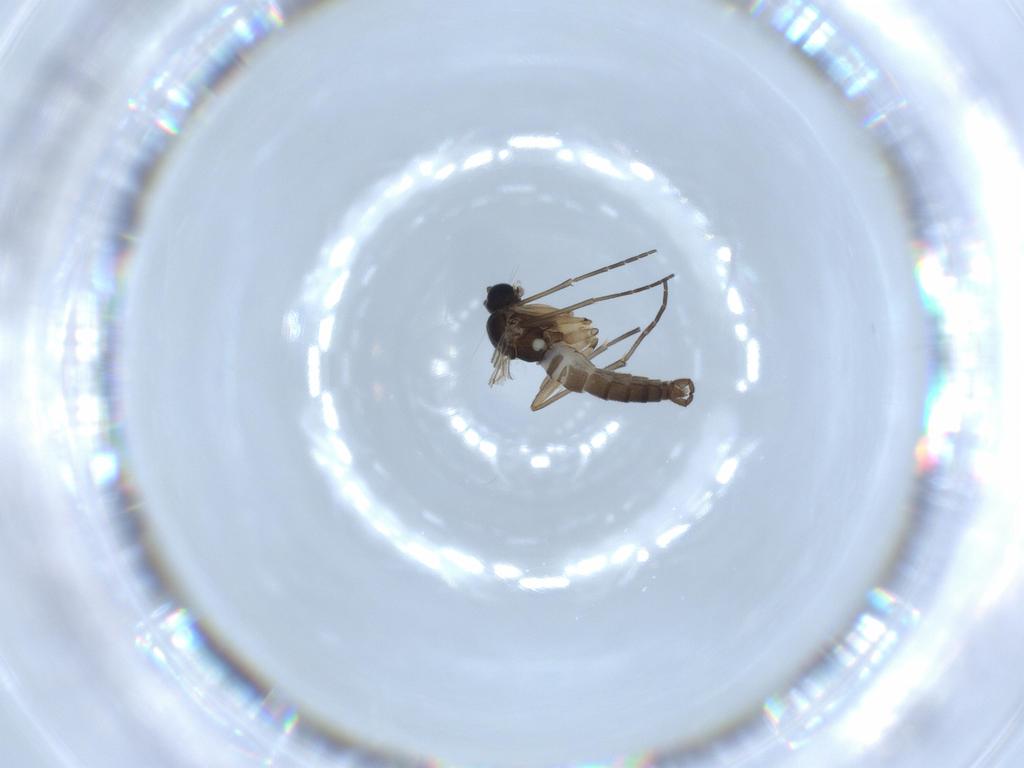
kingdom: Animalia
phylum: Arthropoda
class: Insecta
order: Diptera
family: Sciaridae
